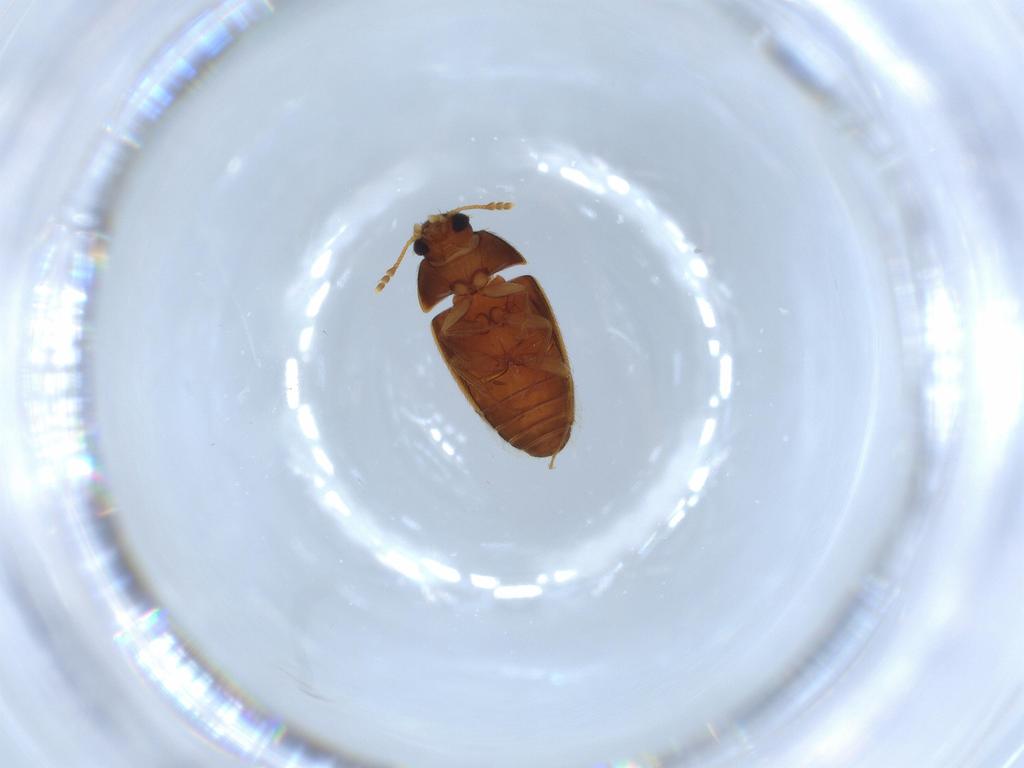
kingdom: Animalia
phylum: Arthropoda
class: Insecta
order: Coleoptera
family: Mycetophagidae
